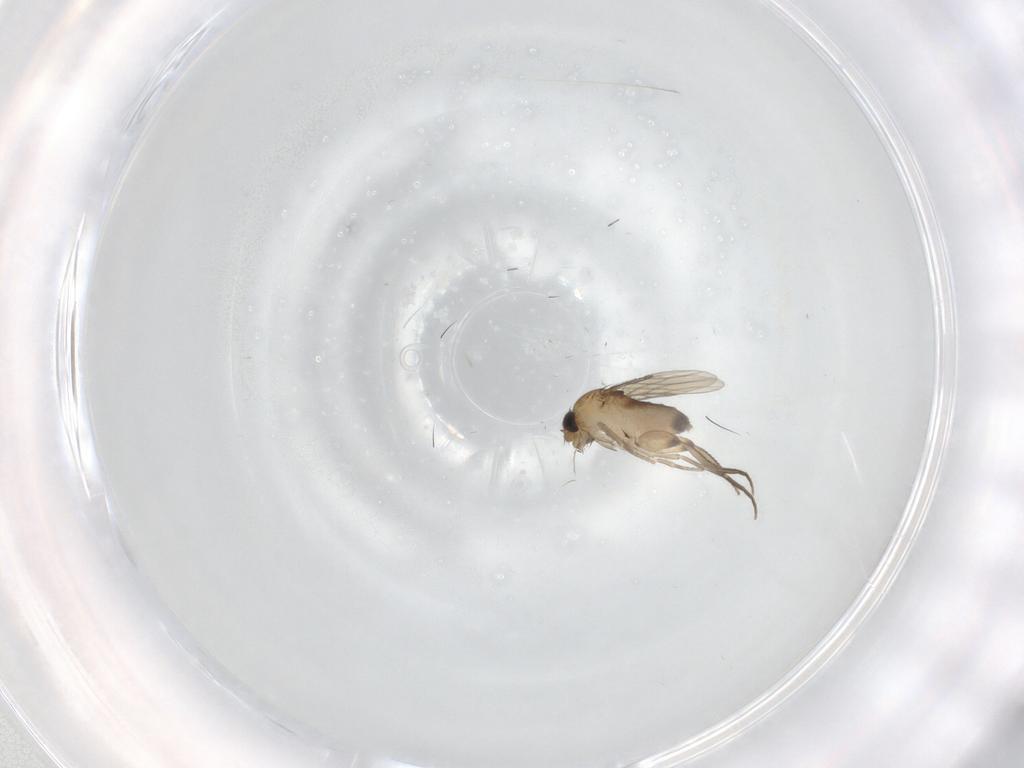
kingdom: Animalia
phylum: Arthropoda
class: Insecta
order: Diptera
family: Phoridae
